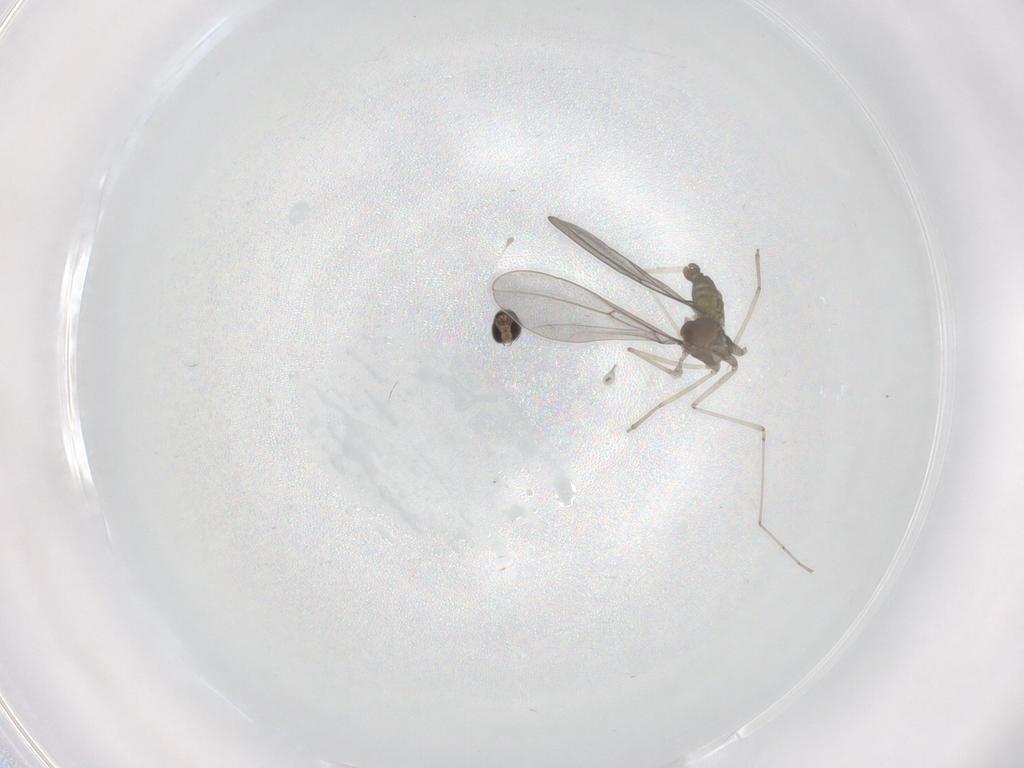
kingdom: Animalia
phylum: Arthropoda
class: Insecta
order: Diptera
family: Cecidomyiidae
